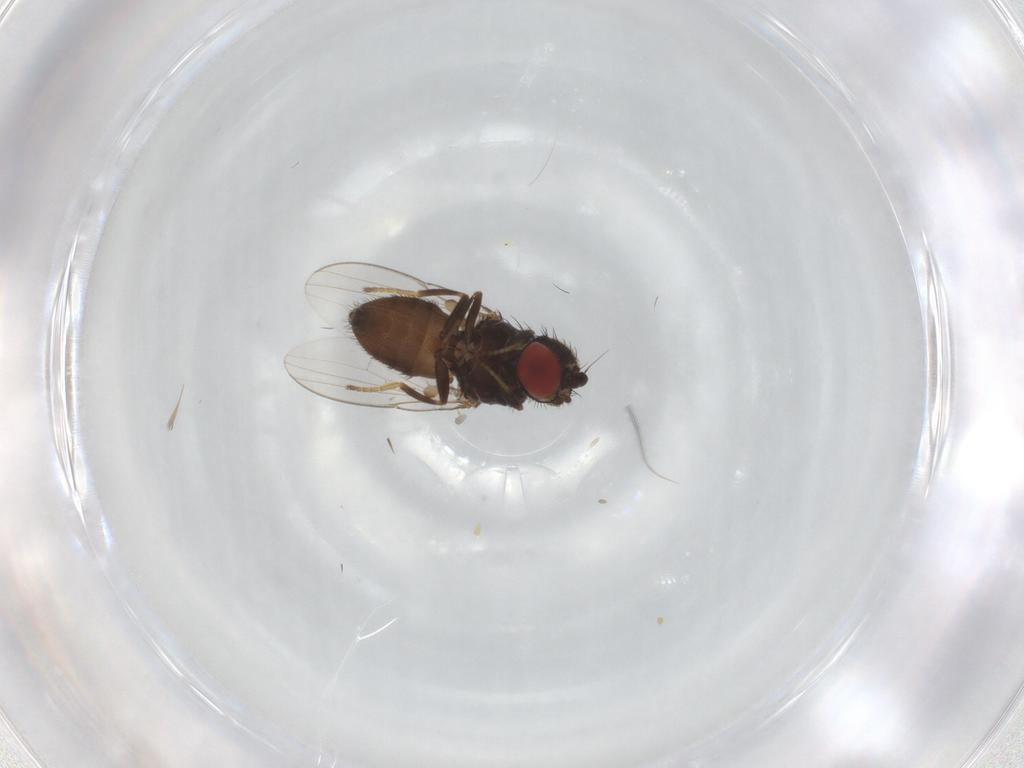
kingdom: Animalia
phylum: Arthropoda
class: Insecta
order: Diptera
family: Milichiidae
